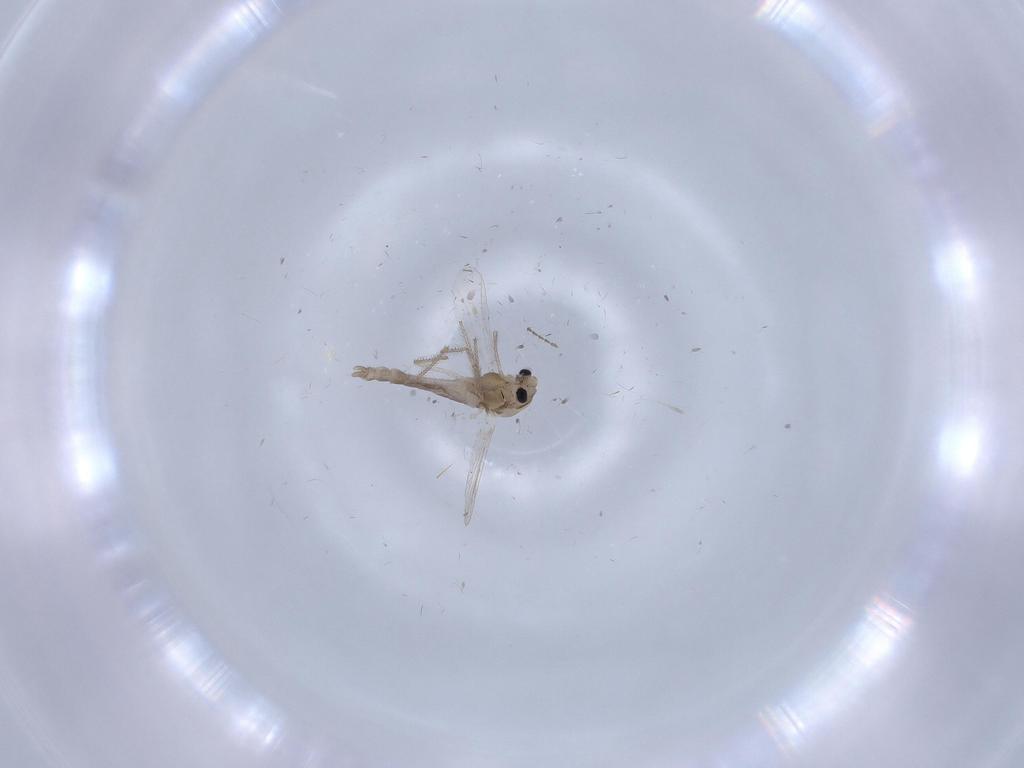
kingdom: Animalia
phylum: Arthropoda
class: Insecta
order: Diptera
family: Chironomidae
